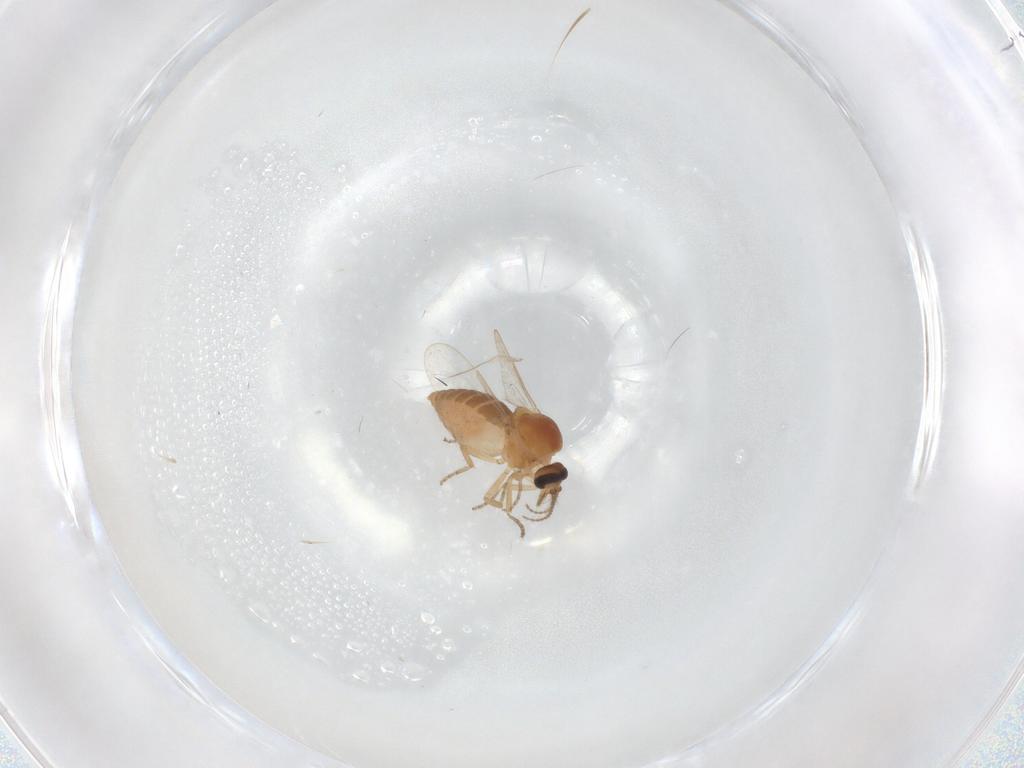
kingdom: Animalia
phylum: Arthropoda
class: Insecta
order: Diptera
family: Ceratopogonidae
